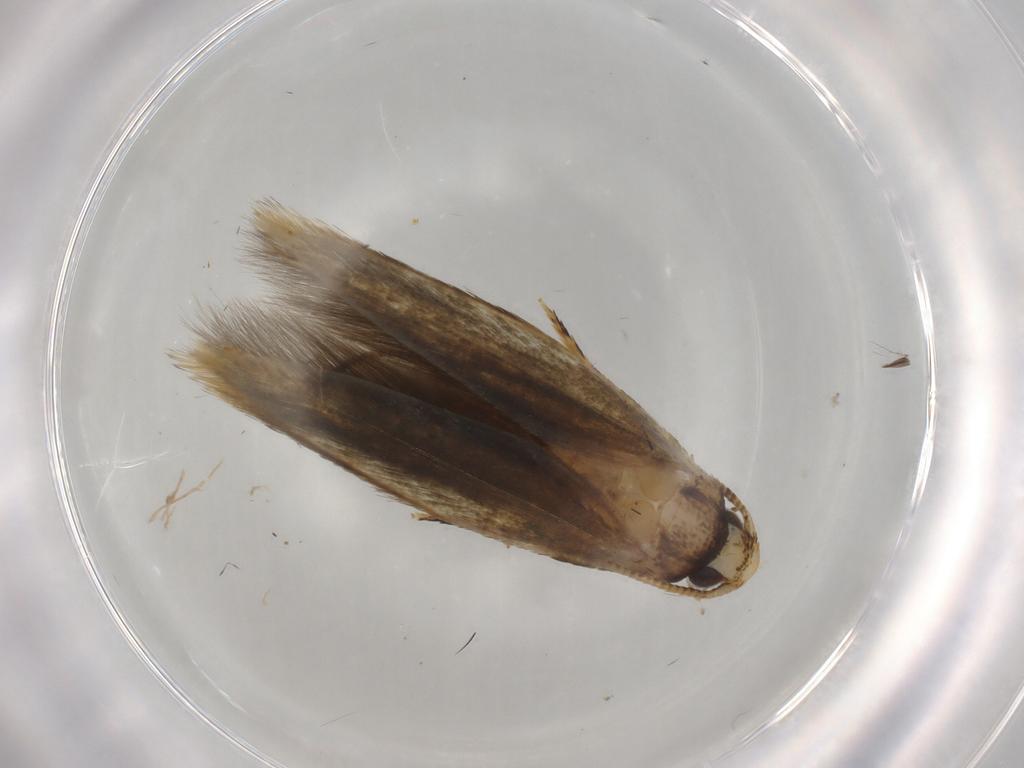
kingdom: Animalia
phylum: Arthropoda
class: Insecta
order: Lepidoptera
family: Tineidae
